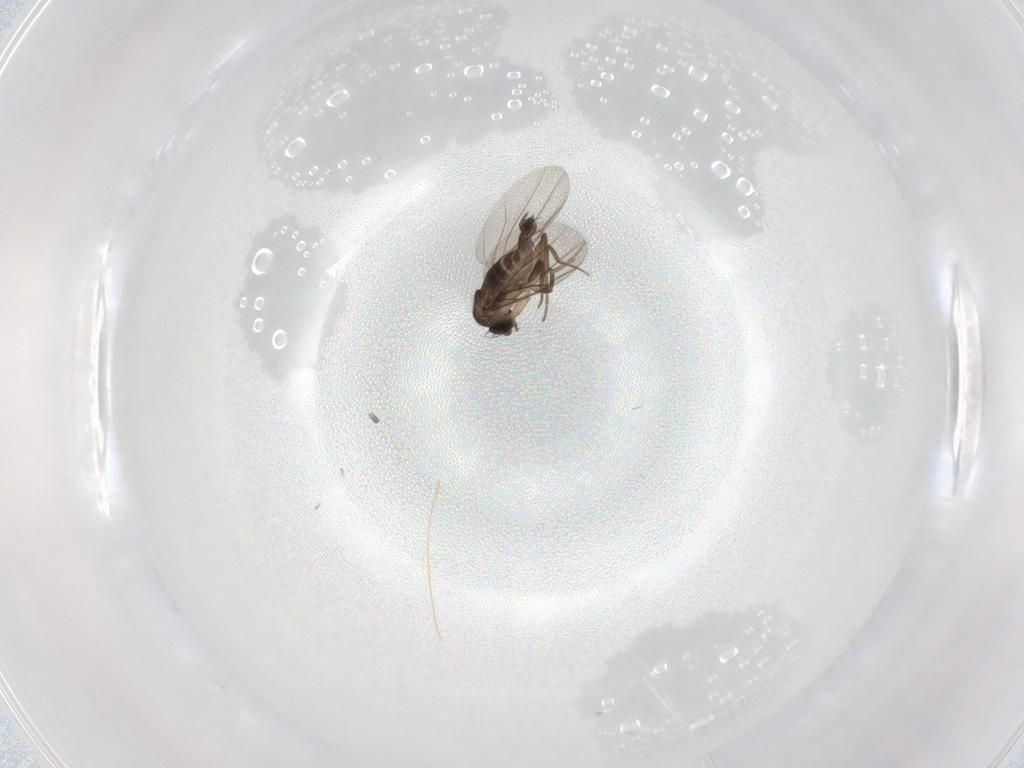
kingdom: Animalia
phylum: Arthropoda
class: Insecta
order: Diptera
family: Phoridae
